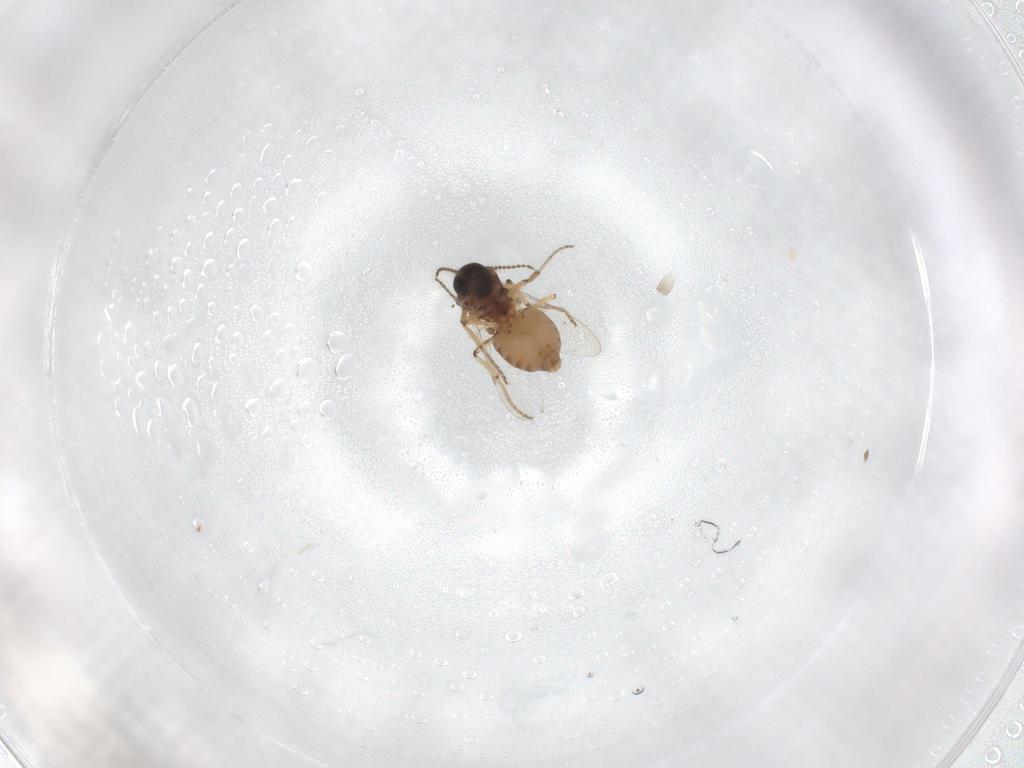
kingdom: Animalia
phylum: Arthropoda
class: Insecta
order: Diptera
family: Ceratopogonidae
